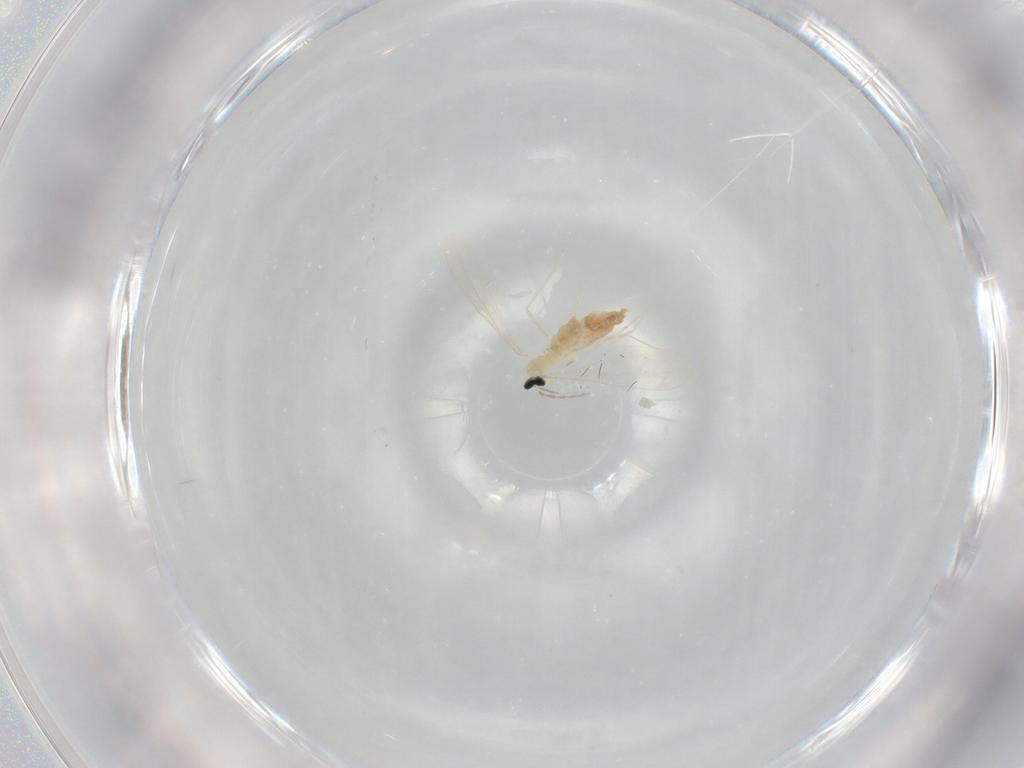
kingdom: Animalia
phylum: Arthropoda
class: Insecta
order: Diptera
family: Cecidomyiidae
